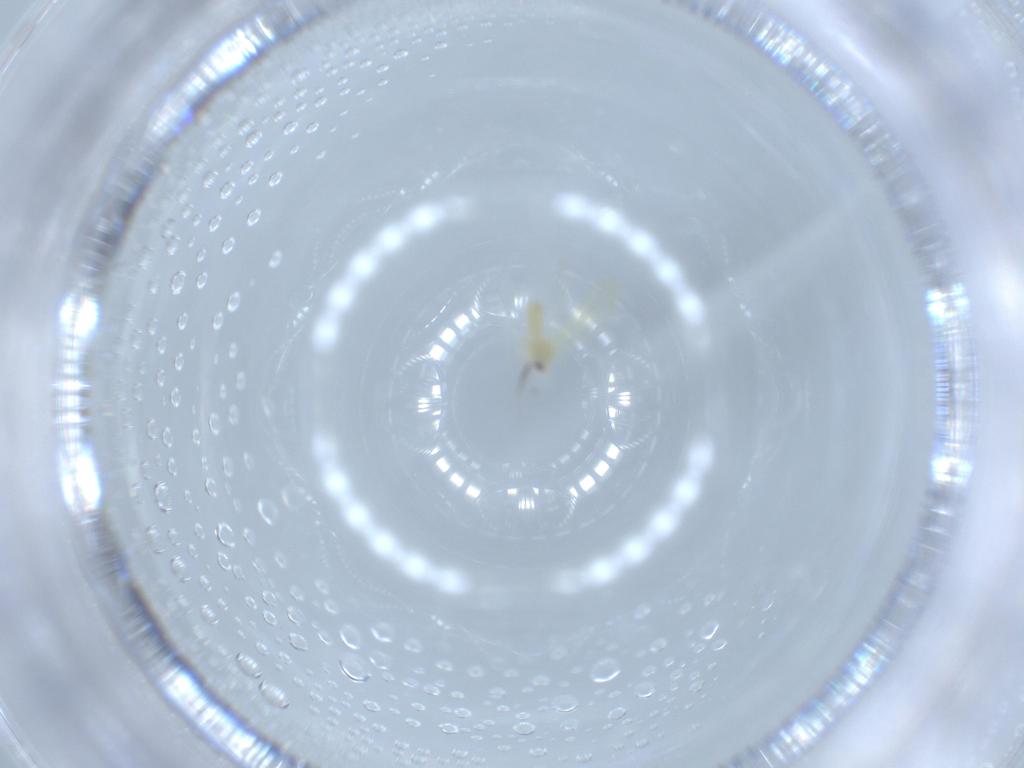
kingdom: Animalia
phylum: Arthropoda
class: Insecta
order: Hemiptera
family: Aleyrodidae
